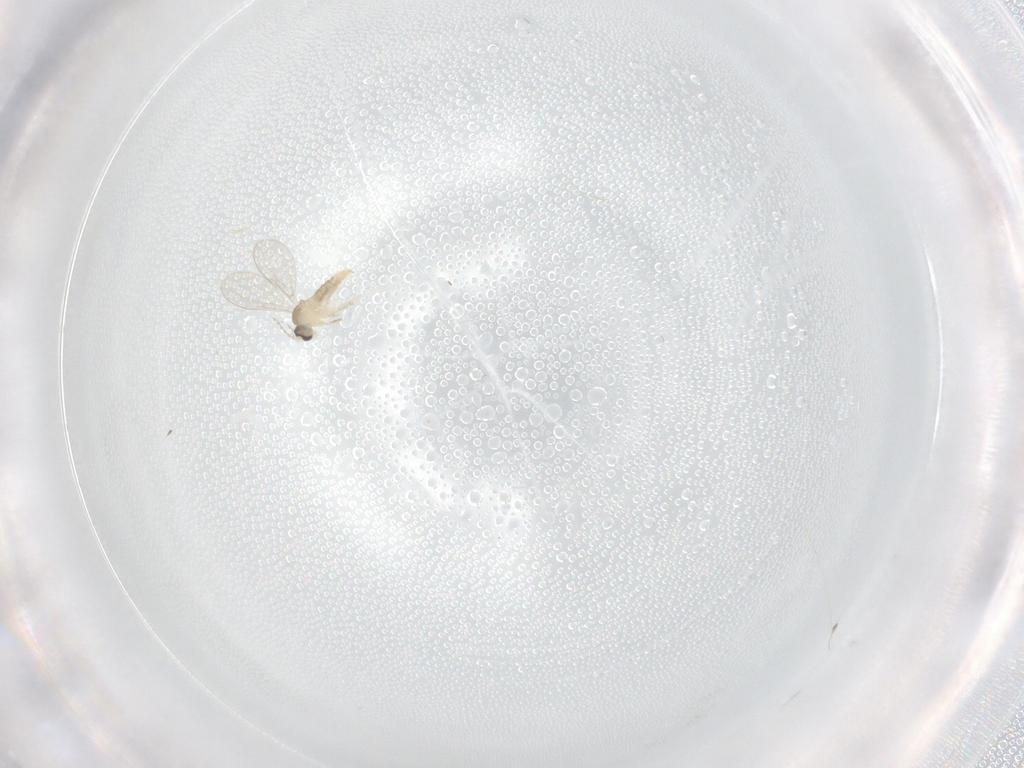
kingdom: Animalia
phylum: Arthropoda
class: Insecta
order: Diptera
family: Cecidomyiidae
